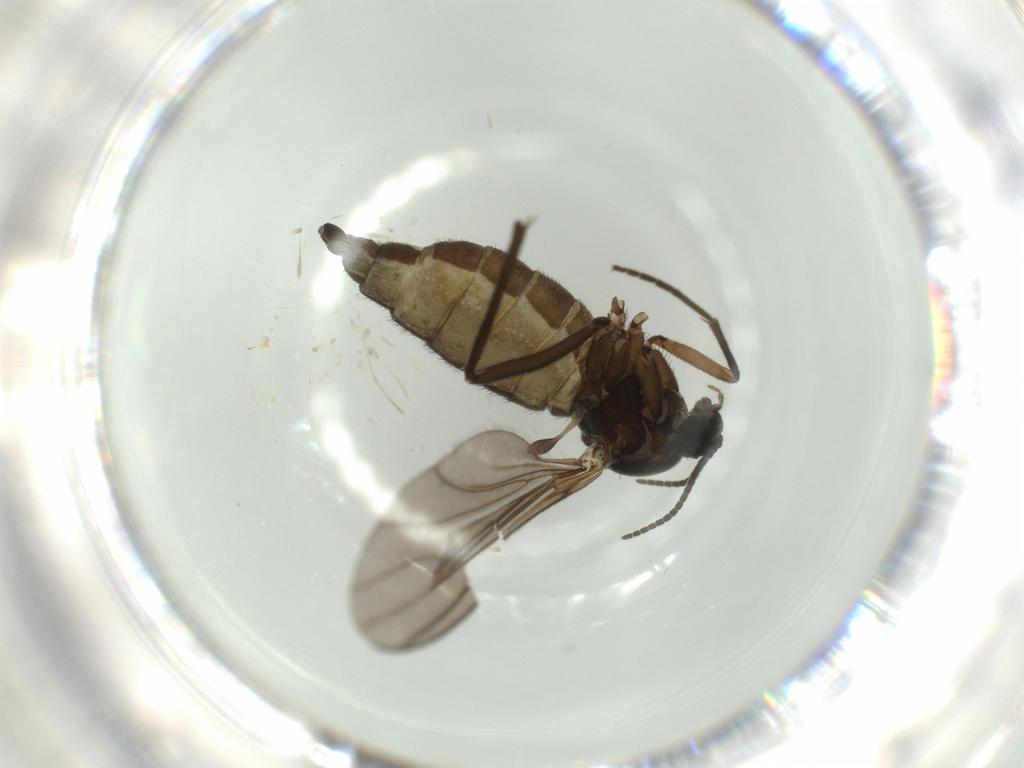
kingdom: Animalia
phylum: Arthropoda
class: Insecta
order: Diptera
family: Sciaridae
